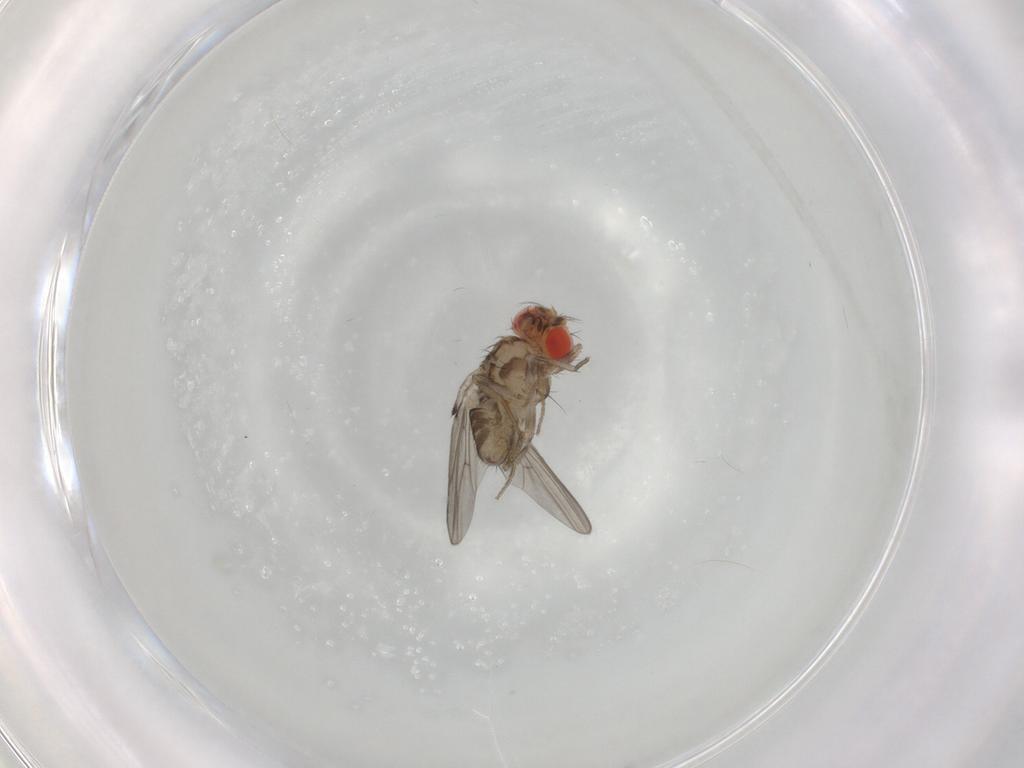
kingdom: Animalia
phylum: Arthropoda
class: Insecta
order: Diptera
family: Drosophilidae
